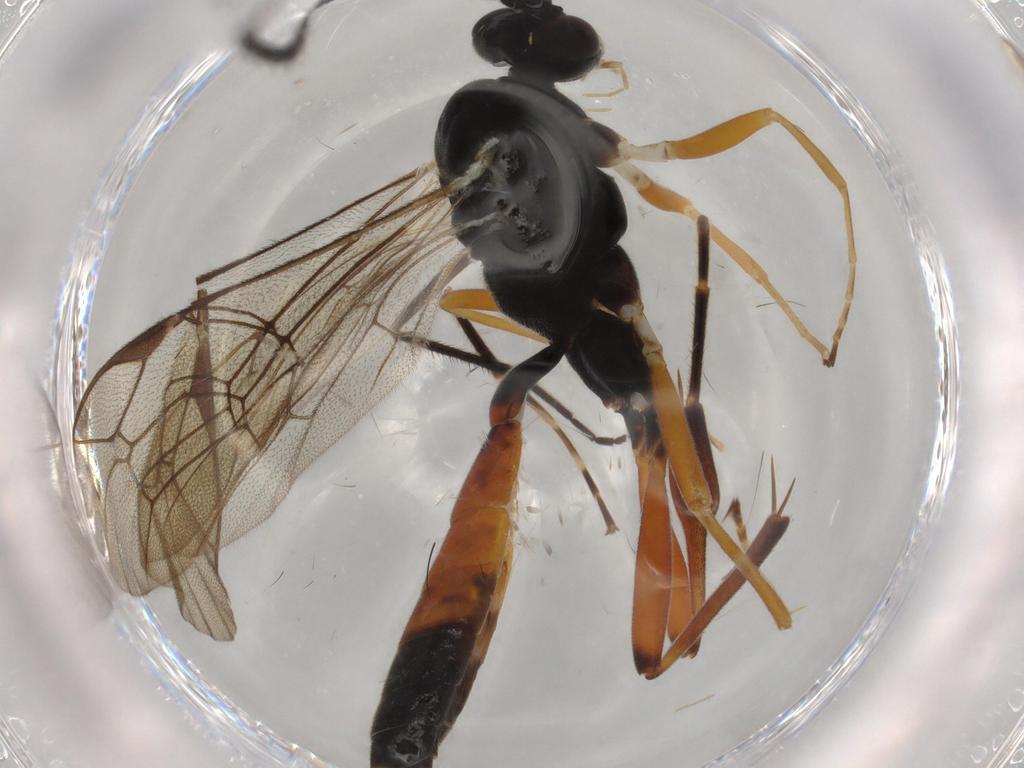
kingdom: Animalia
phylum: Arthropoda
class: Insecta
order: Hymenoptera
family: Ichneumonidae
